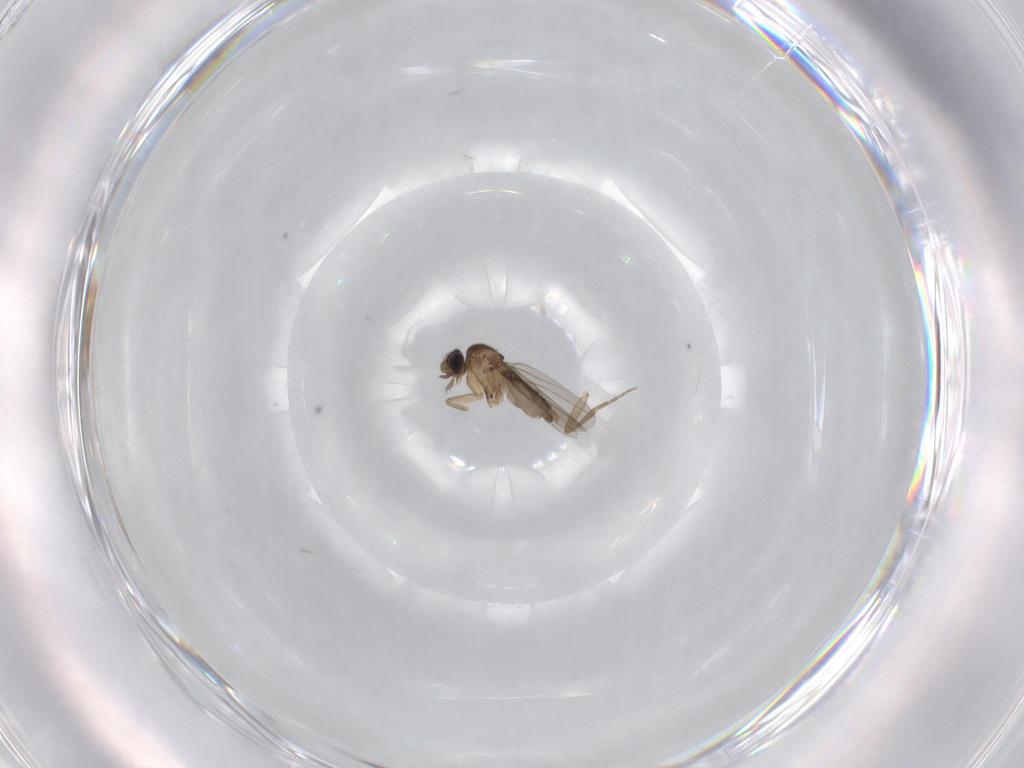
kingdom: Animalia
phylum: Arthropoda
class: Insecta
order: Diptera
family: Phoridae
